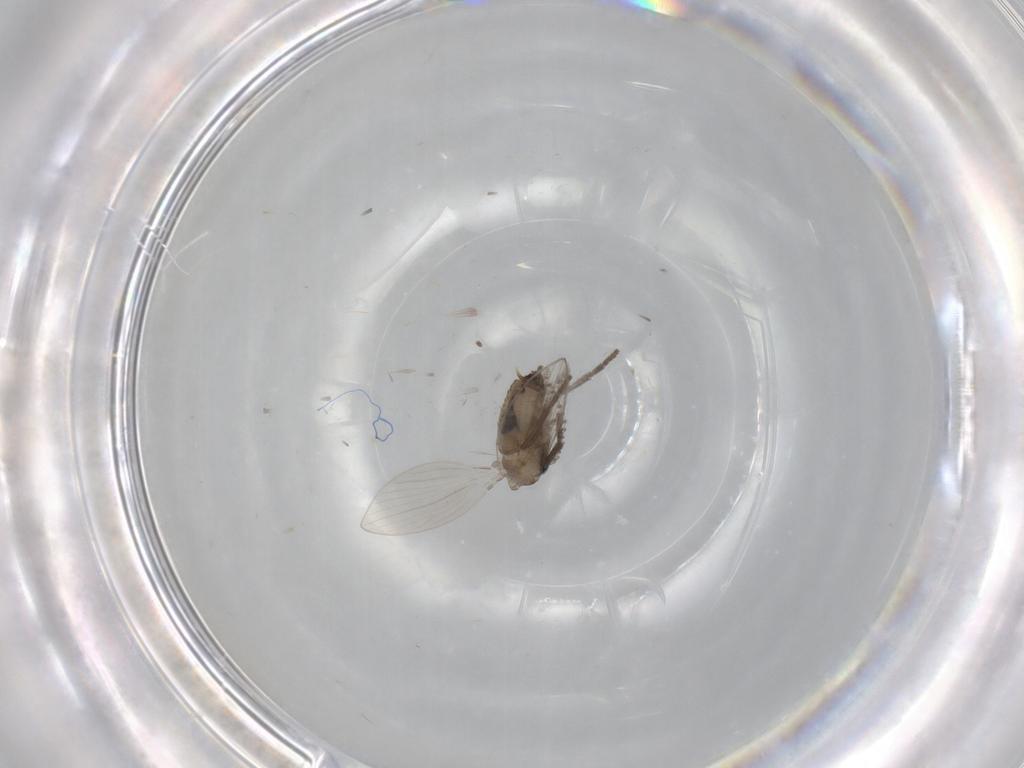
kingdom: Animalia
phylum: Arthropoda
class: Insecta
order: Diptera
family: Psychodidae
